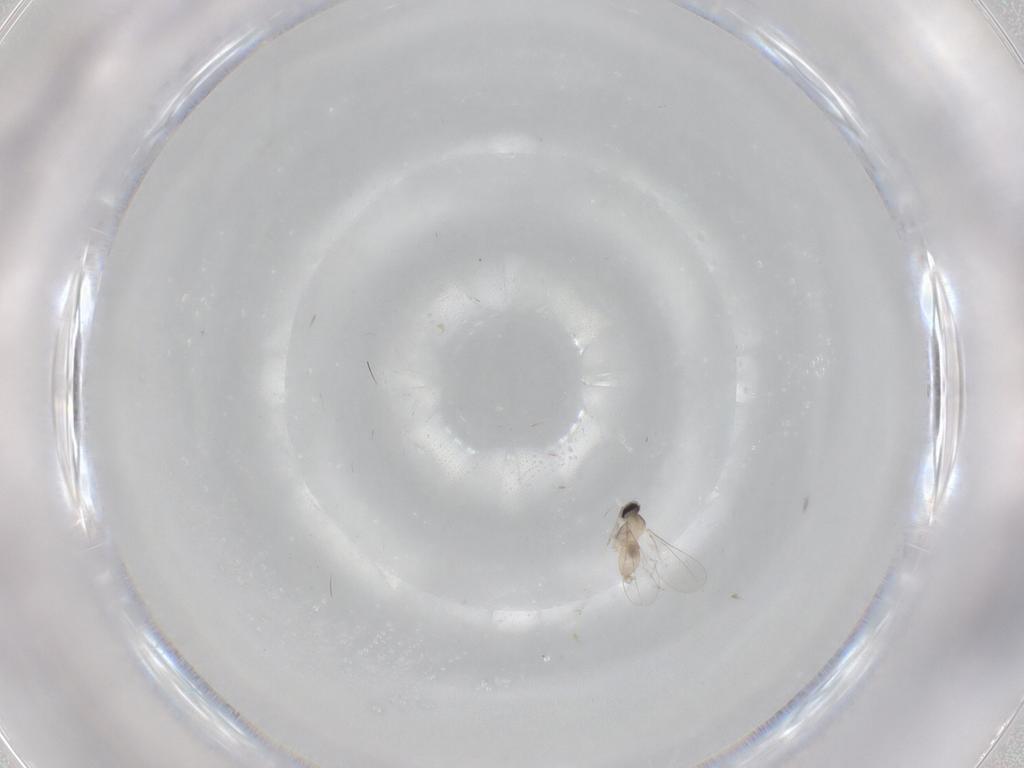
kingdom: Animalia
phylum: Arthropoda
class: Insecta
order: Diptera
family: Cecidomyiidae
